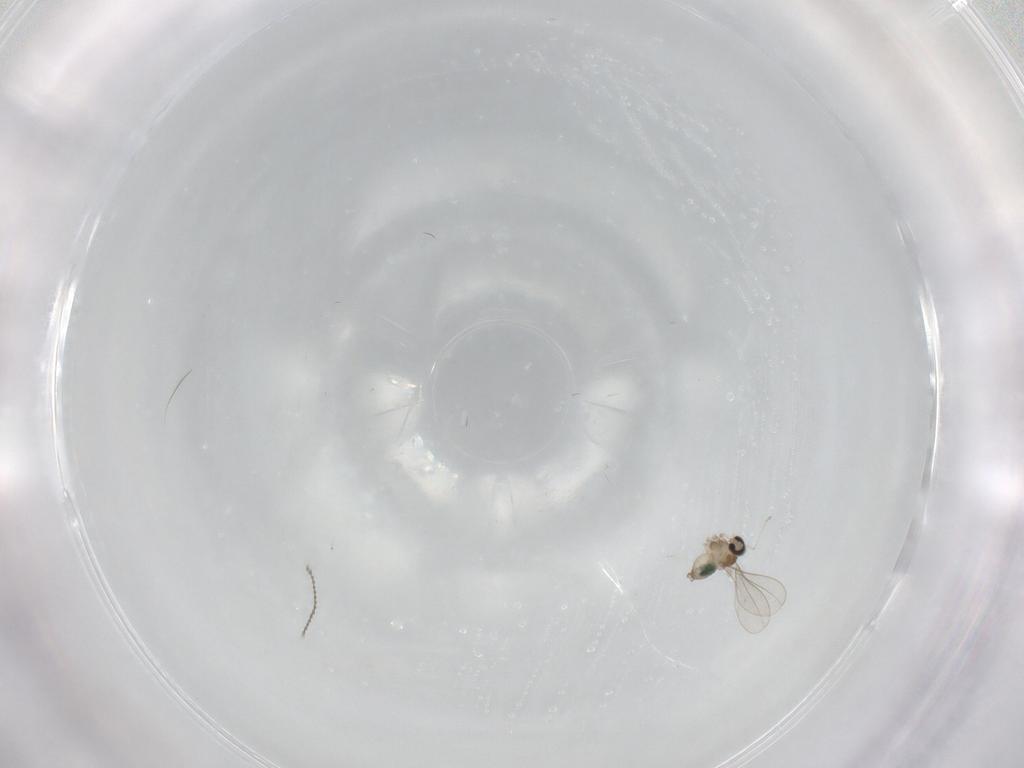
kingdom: Animalia
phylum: Arthropoda
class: Insecta
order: Diptera
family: Cecidomyiidae
